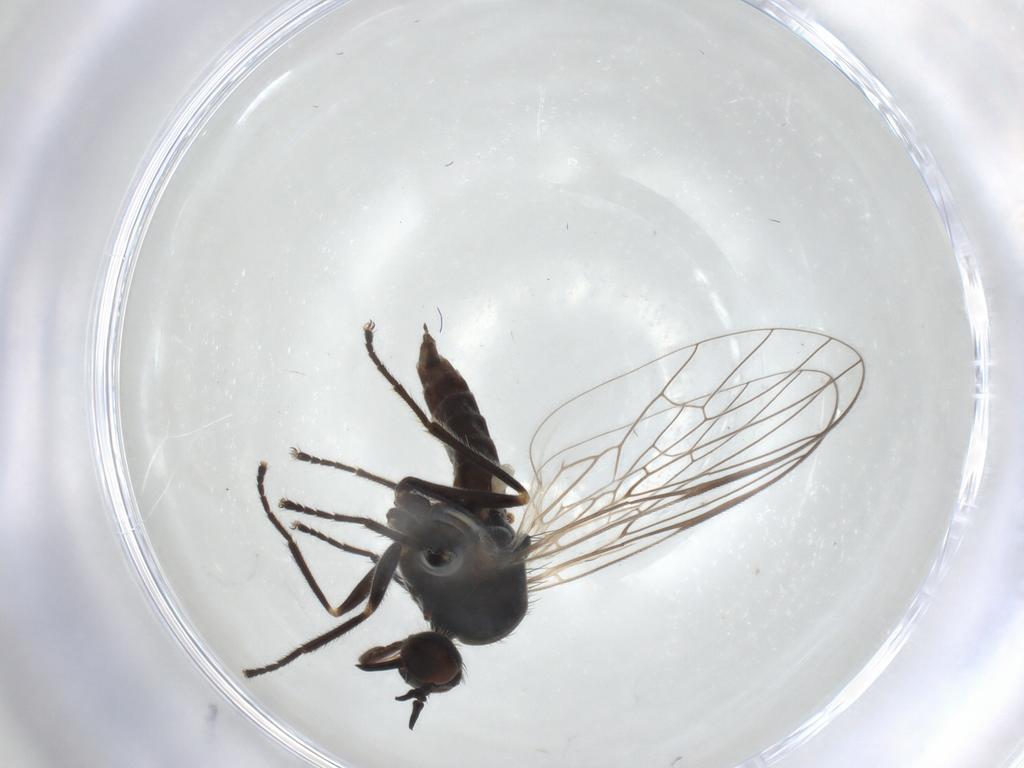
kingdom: Animalia
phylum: Arthropoda
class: Insecta
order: Diptera
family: Empididae
